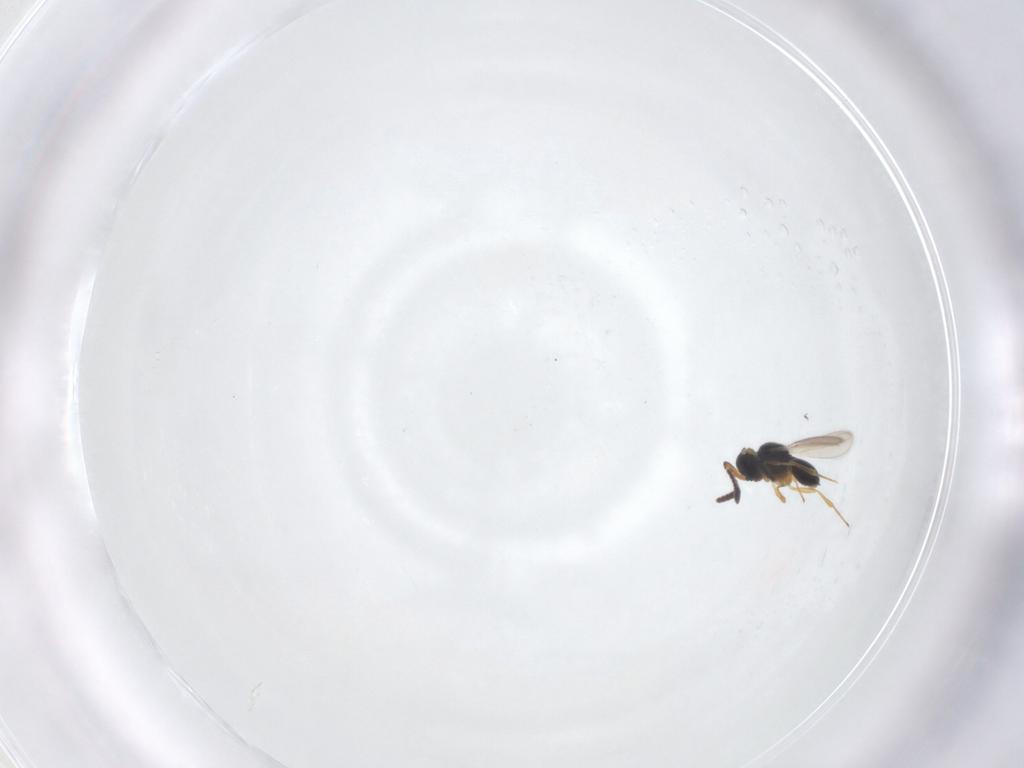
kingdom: Animalia
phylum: Arthropoda
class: Insecta
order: Hymenoptera
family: Scelionidae
